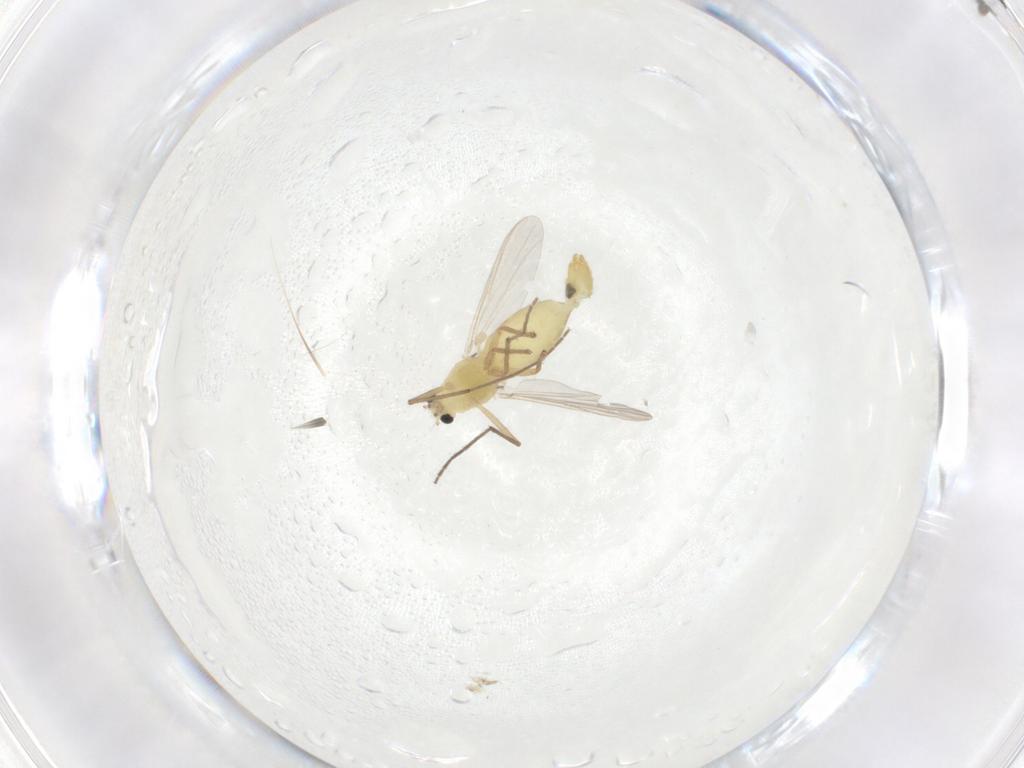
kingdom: Animalia
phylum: Arthropoda
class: Insecta
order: Diptera
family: Chironomidae
